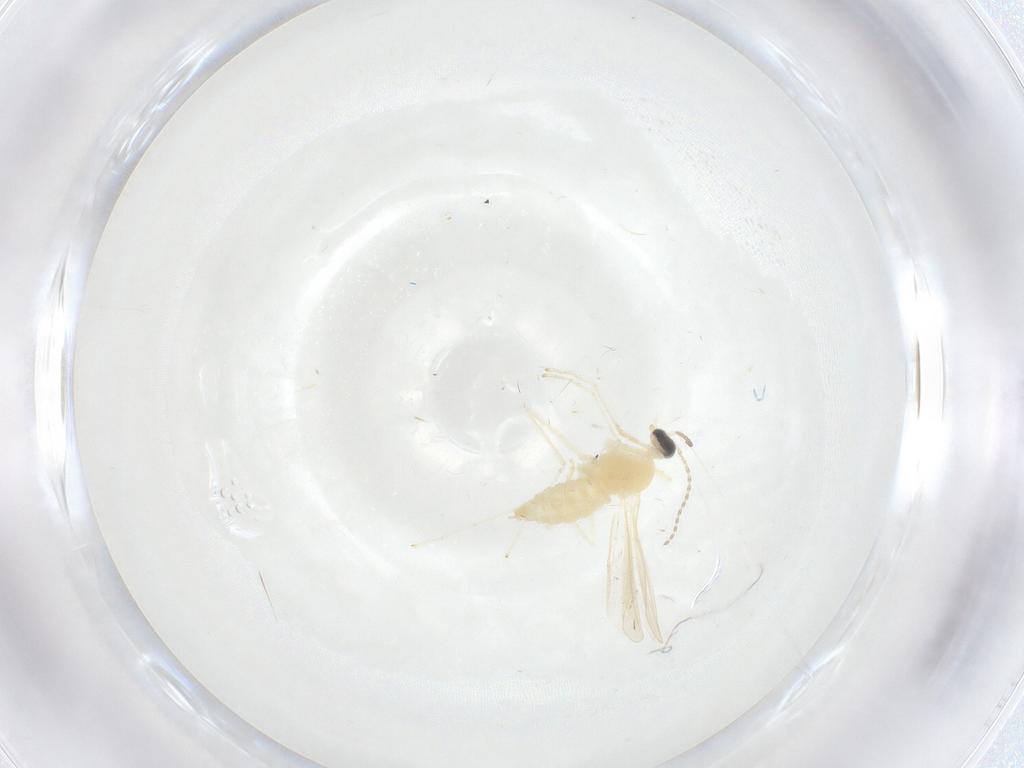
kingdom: Animalia
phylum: Arthropoda
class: Insecta
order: Diptera
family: Cecidomyiidae
